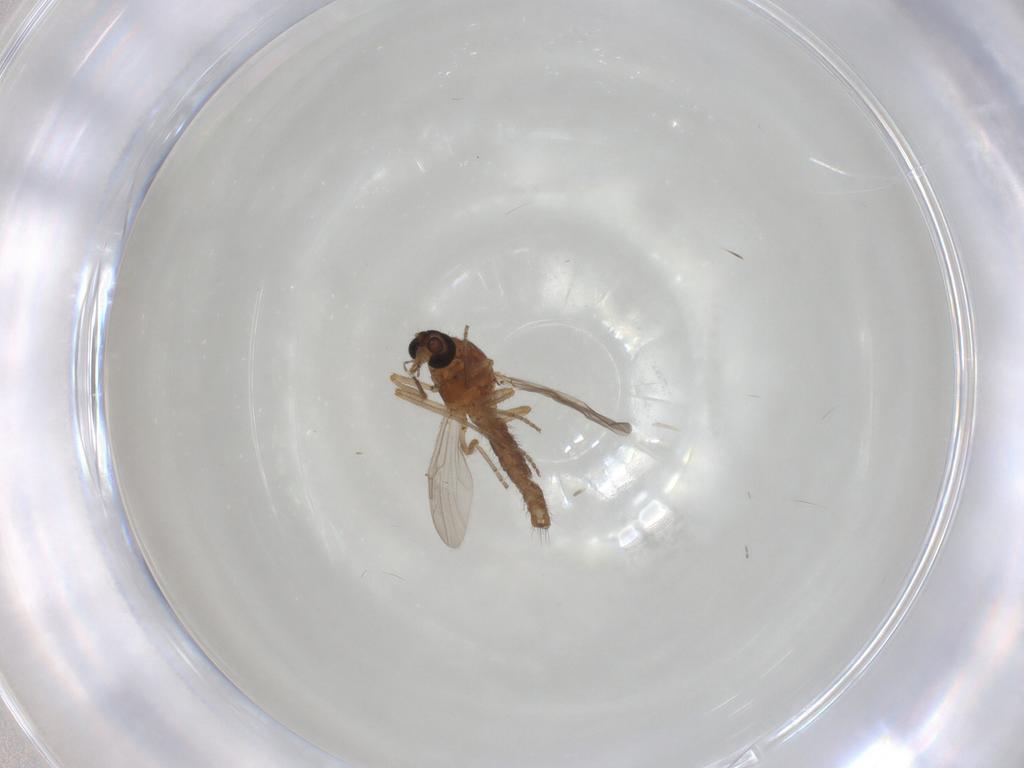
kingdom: Animalia
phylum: Arthropoda
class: Insecta
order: Diptera
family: Ceratopogonidae
